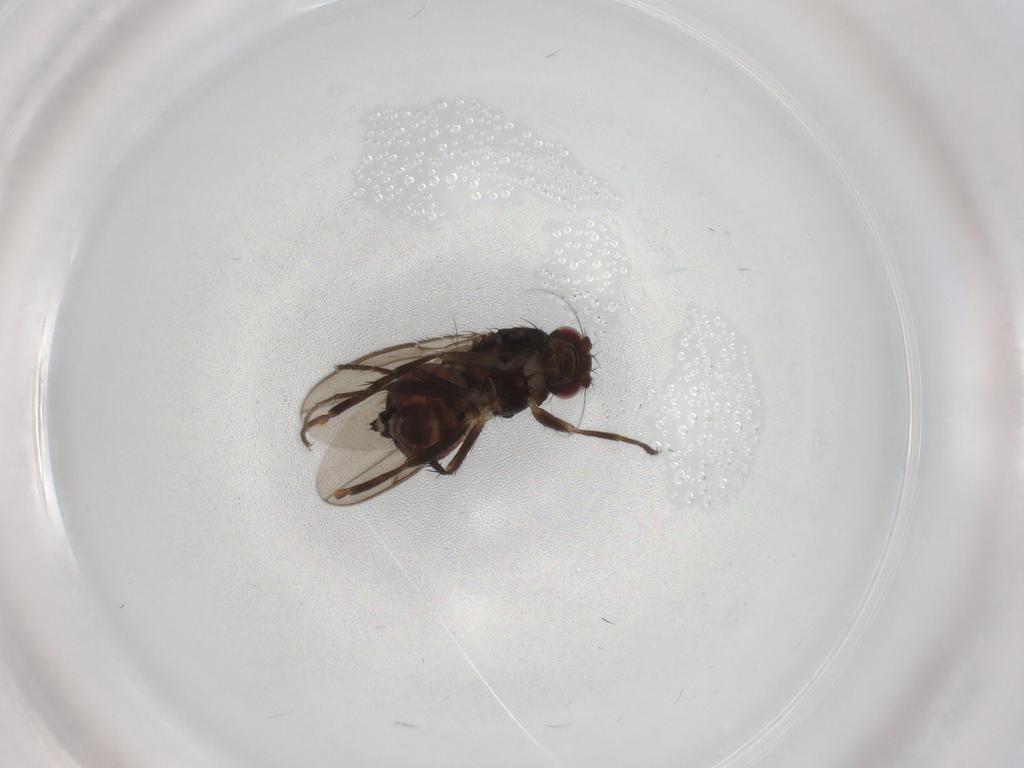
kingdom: Animalia
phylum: Arthropoda
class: Insecta
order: Diptera
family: Sphaeroceridae
